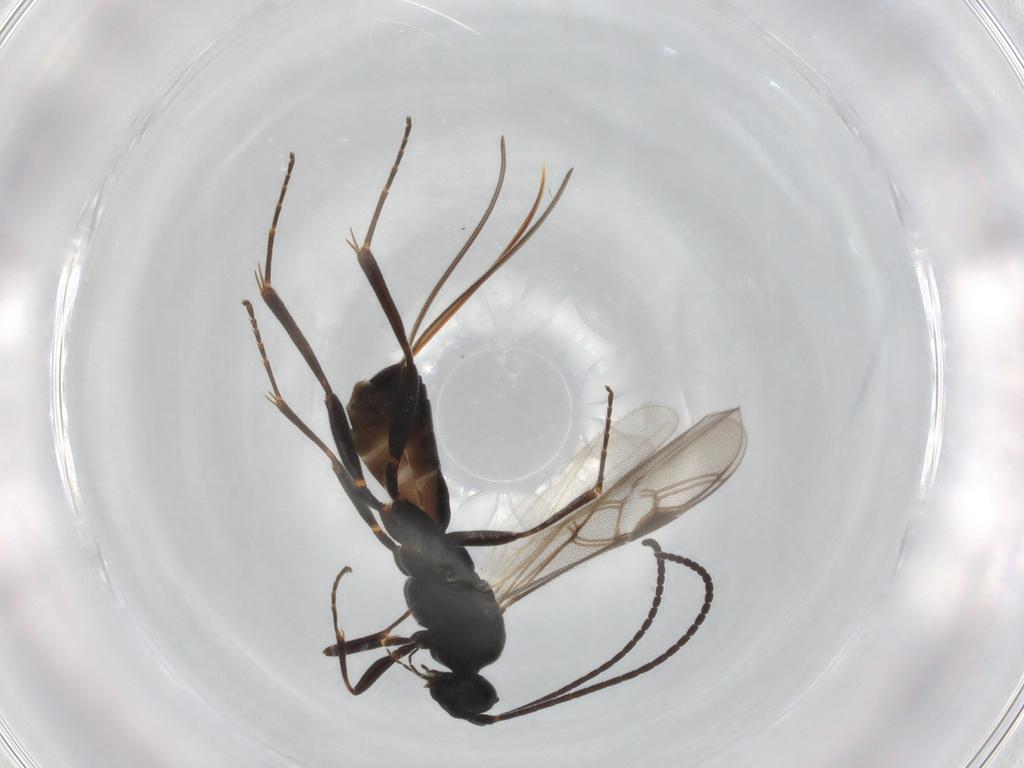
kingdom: Animalia
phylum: Arthropoda
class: Insecta
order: Hymenoptera
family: Braconidae
